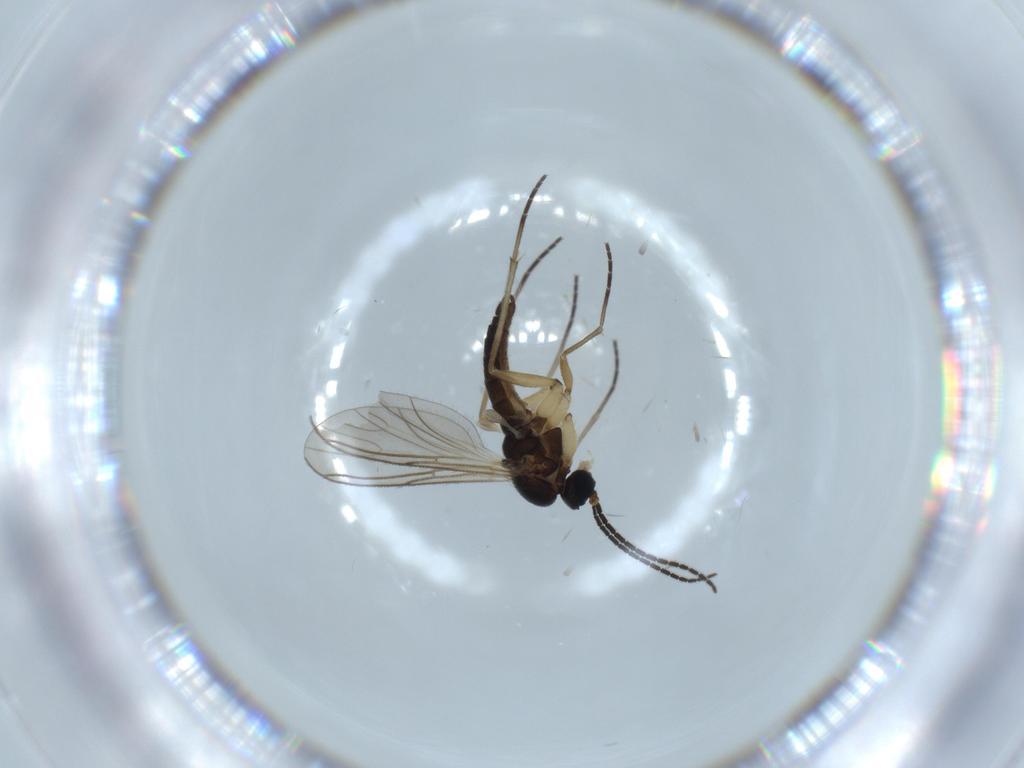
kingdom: Animalia
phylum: Arthropoda
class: Insecta
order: Diptera
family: Sciaridae
